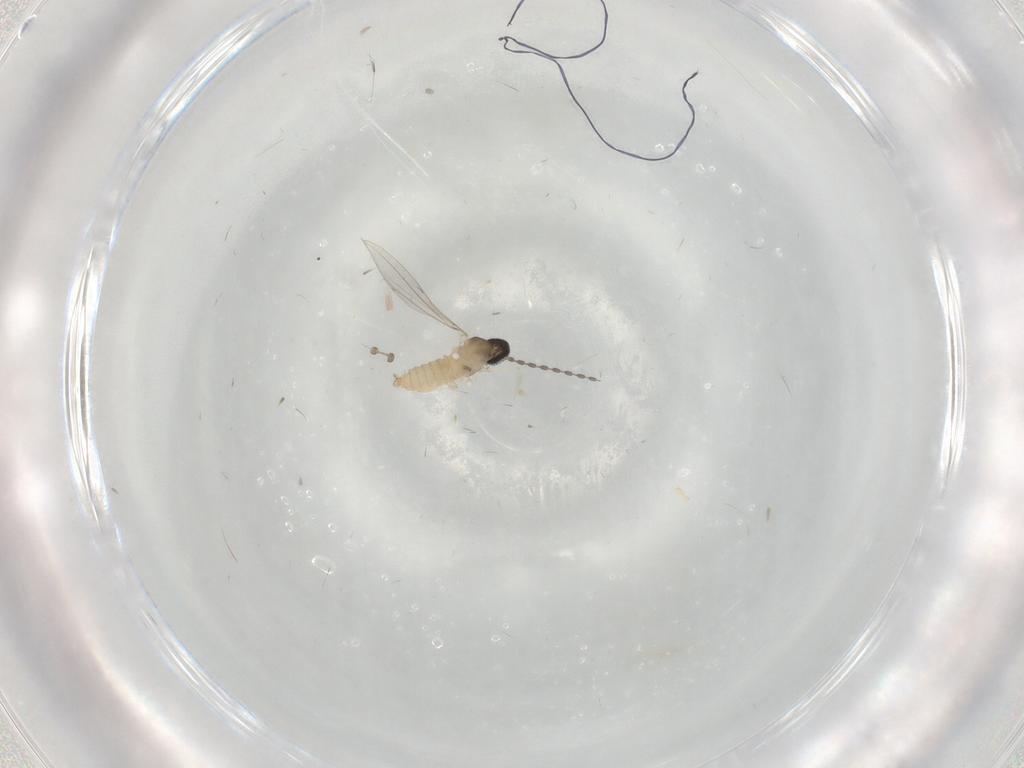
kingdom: Animalia
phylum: Arthropoda
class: Insecta
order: Diptera
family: Cecidomyiidae
